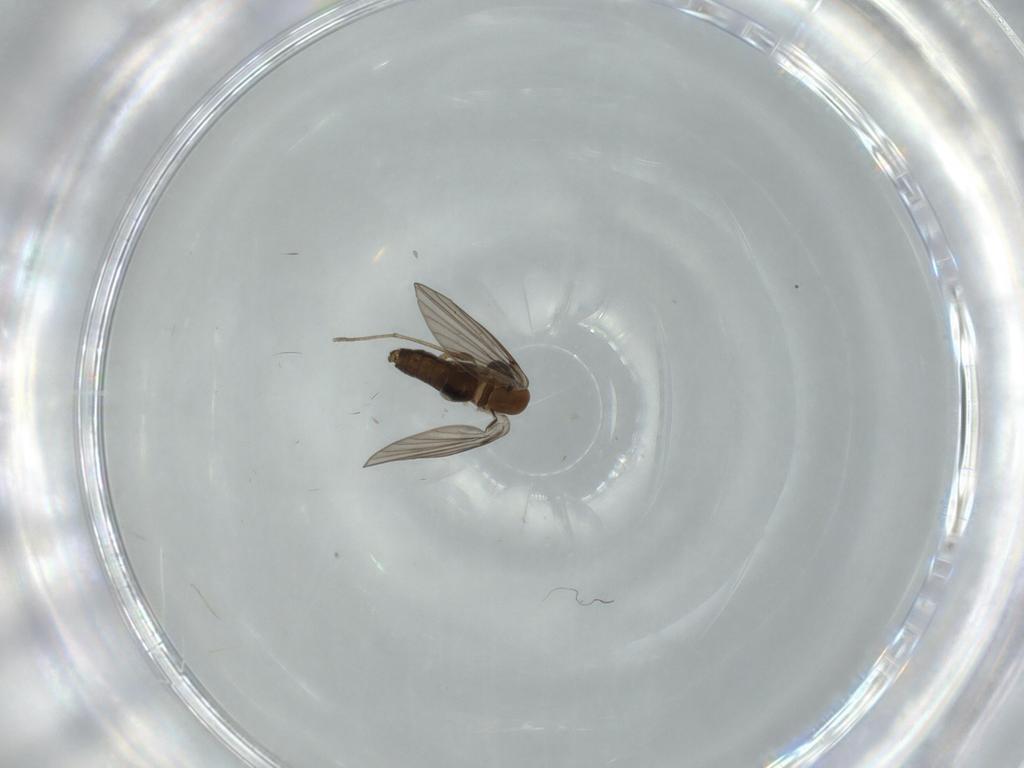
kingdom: Animalia
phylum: Arthropoda
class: Insecta
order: Diptera
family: Psychodidae
